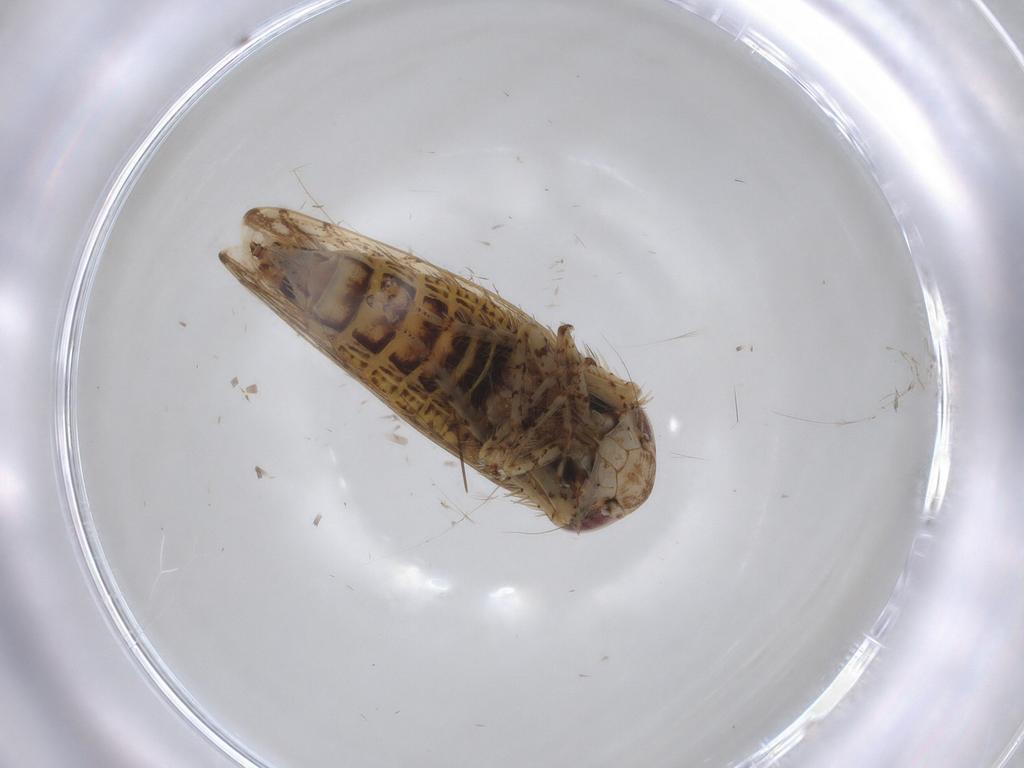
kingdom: Animalia
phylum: Arthropoda
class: Insecta
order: Hemiptera
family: Cicadellidae
